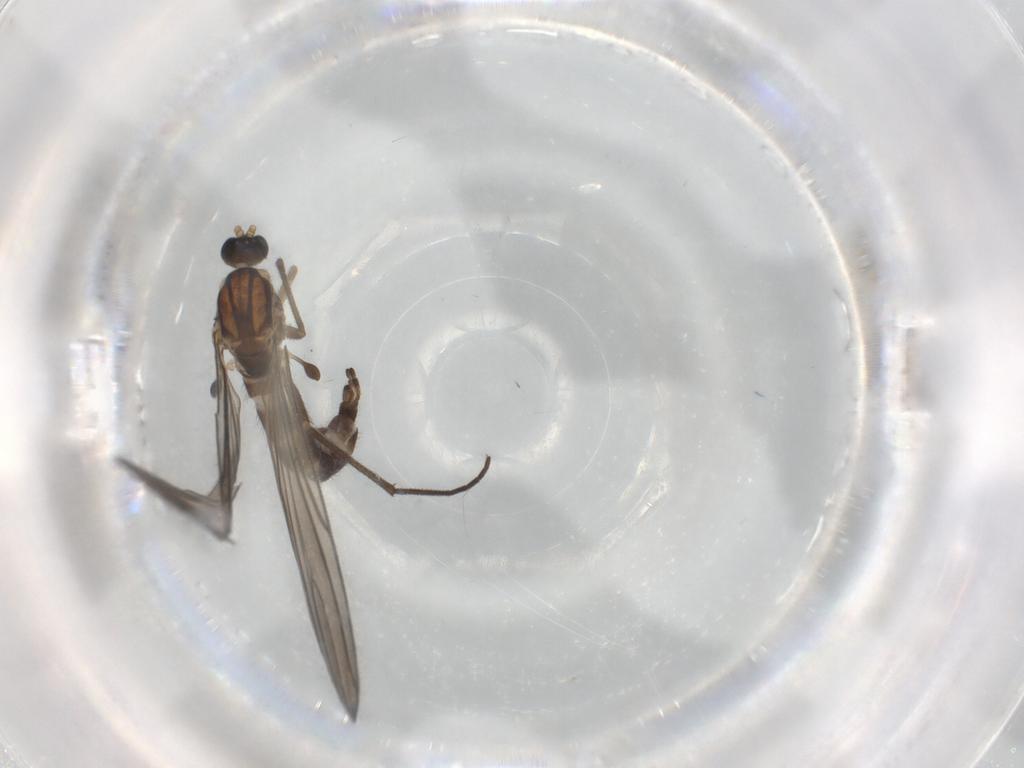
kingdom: Animalia
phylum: Arthropoda
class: Insecta
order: Diptera
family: Sciaridae
